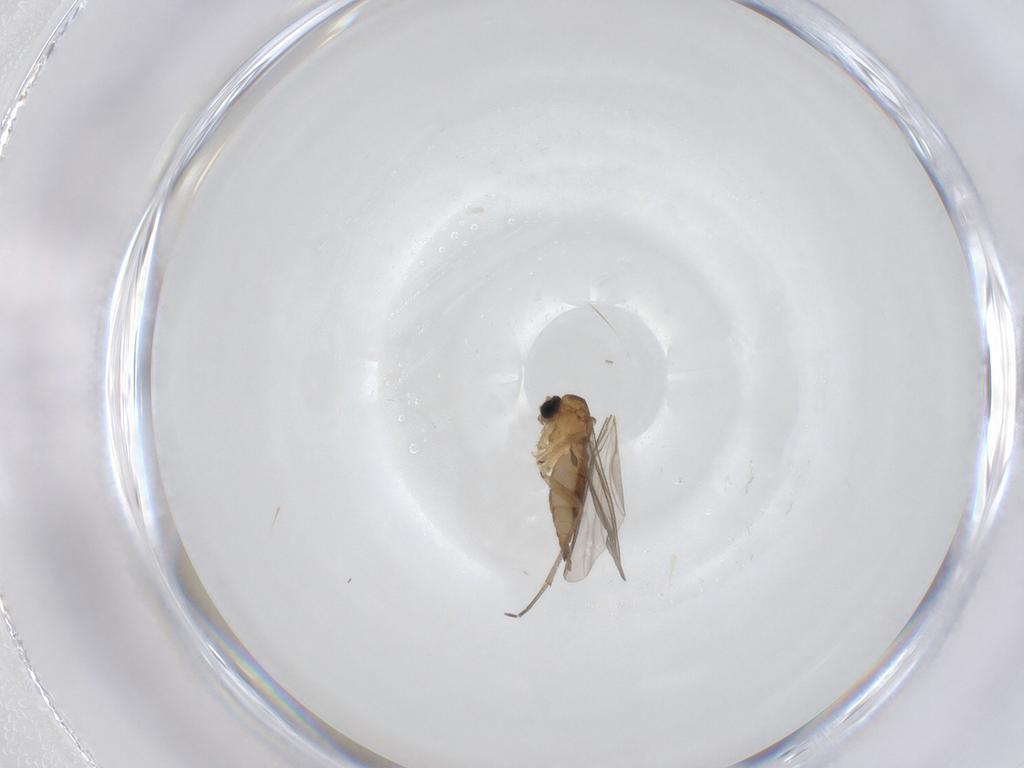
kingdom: Animalia
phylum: Arthropoda
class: Insecta
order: Diptera
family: Sciaridae
